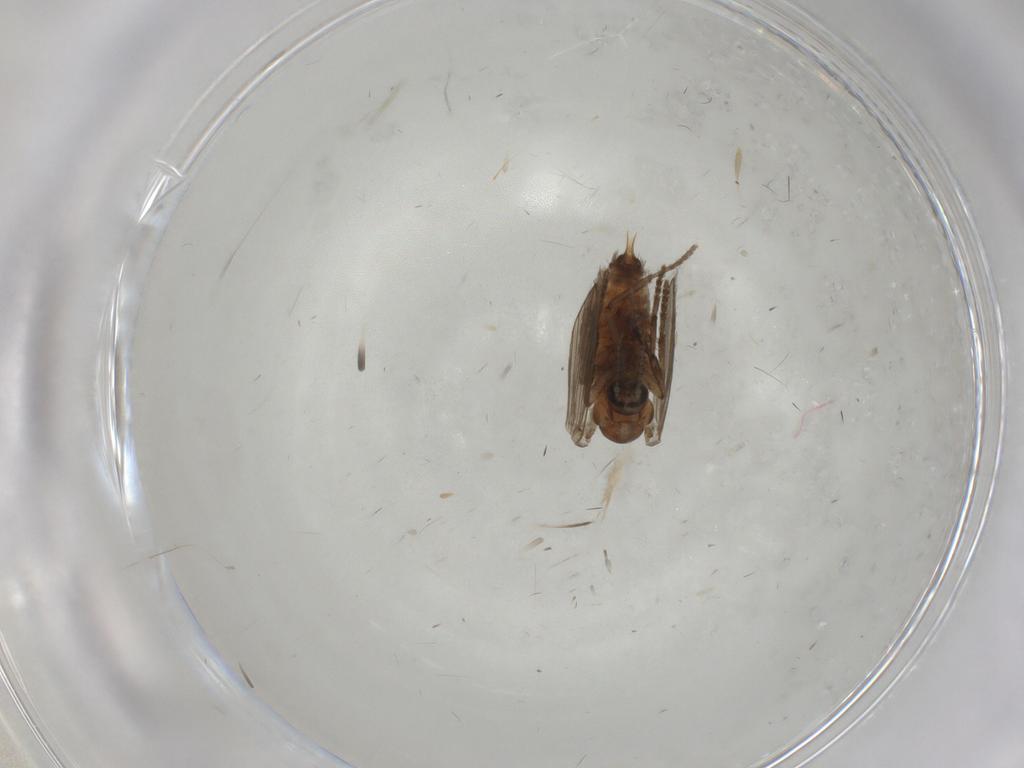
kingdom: Animalia
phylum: Arthropoda
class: Insecta
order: Diptera
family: Psychodidae
